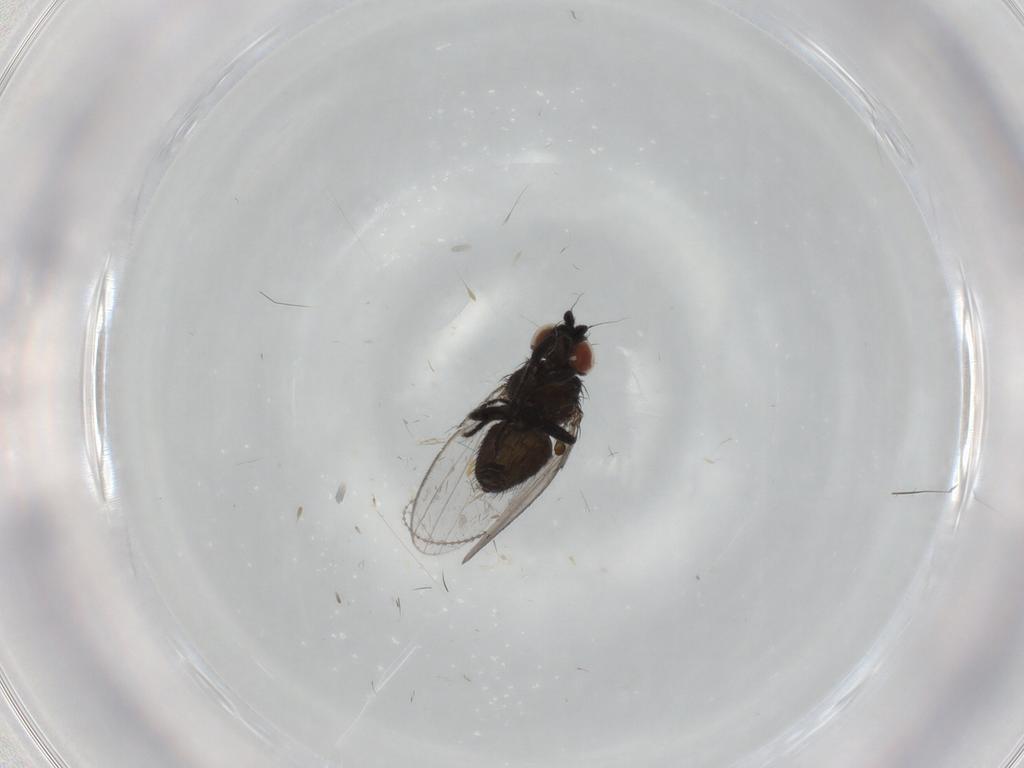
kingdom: Animalia
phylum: Arthropoda
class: Insecta
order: Diptera
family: Milichiidae
